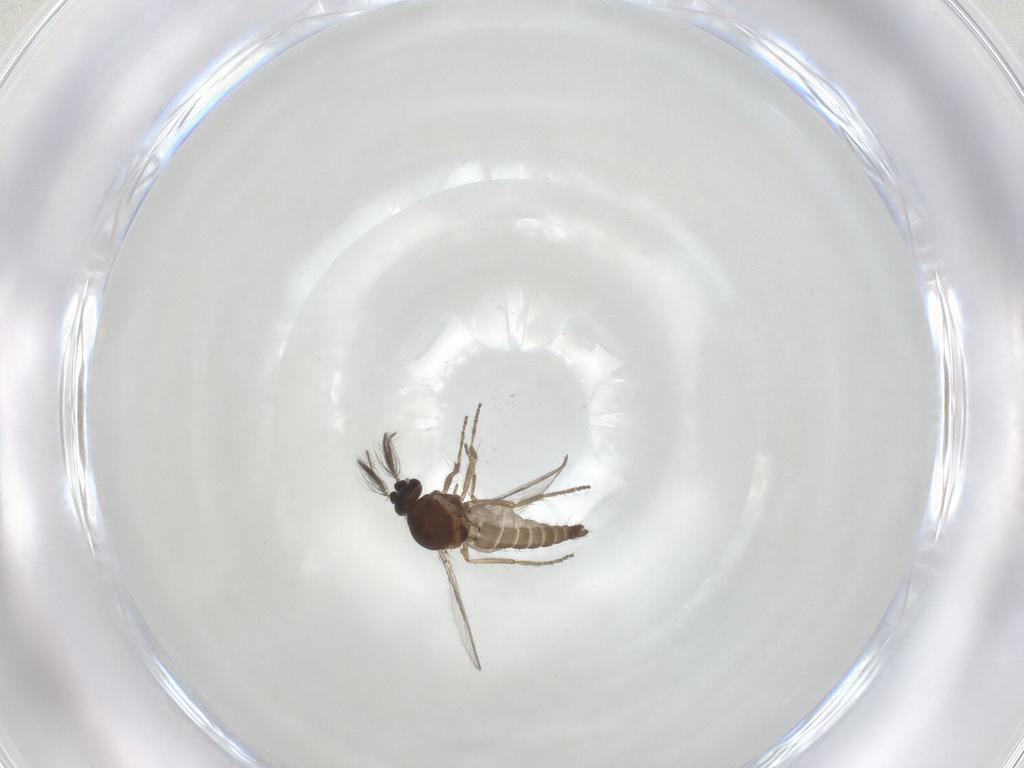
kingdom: Animalia
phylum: Arthropoda
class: Insecta
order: Diptera
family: Ceratopogonidae
